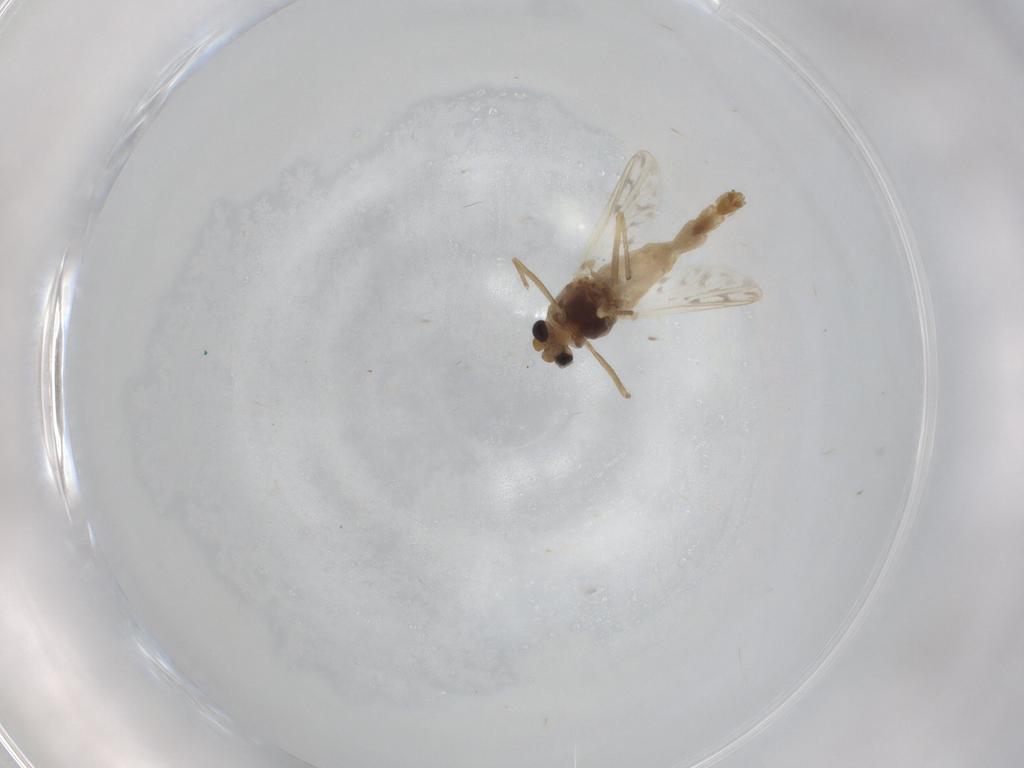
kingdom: Animalia
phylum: Arthropoda
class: Insecta
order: Diptera
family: Chironomidae
